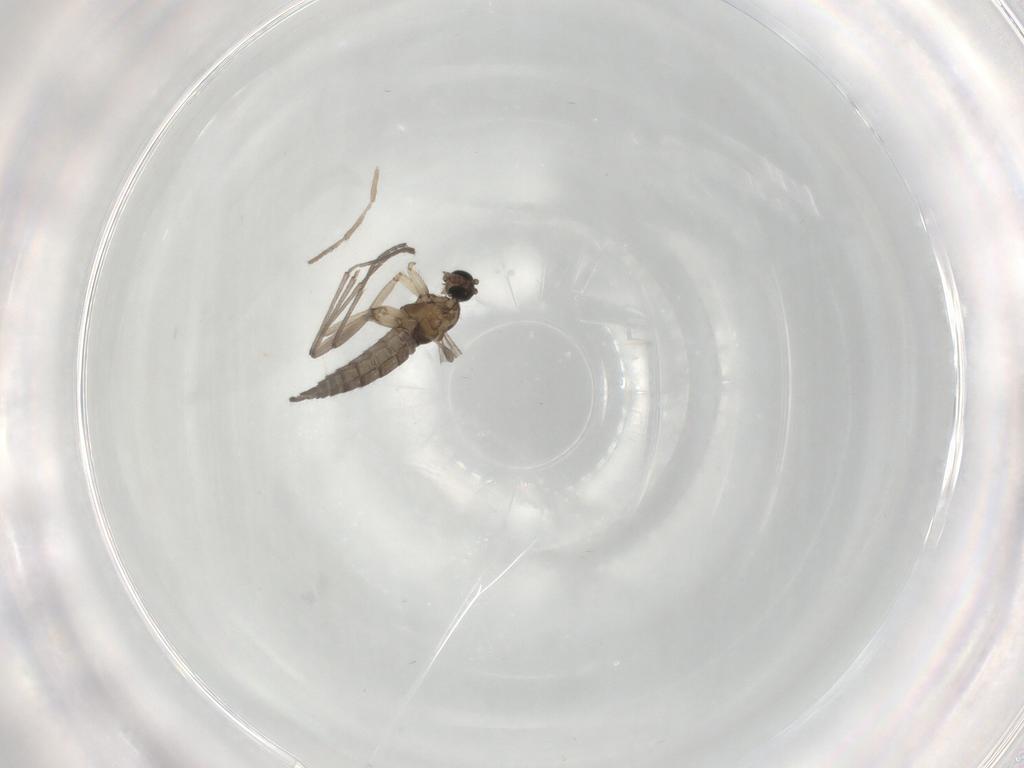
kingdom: Animalia
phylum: Arthropoda
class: Insecta
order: Diptera
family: Sciaridae
